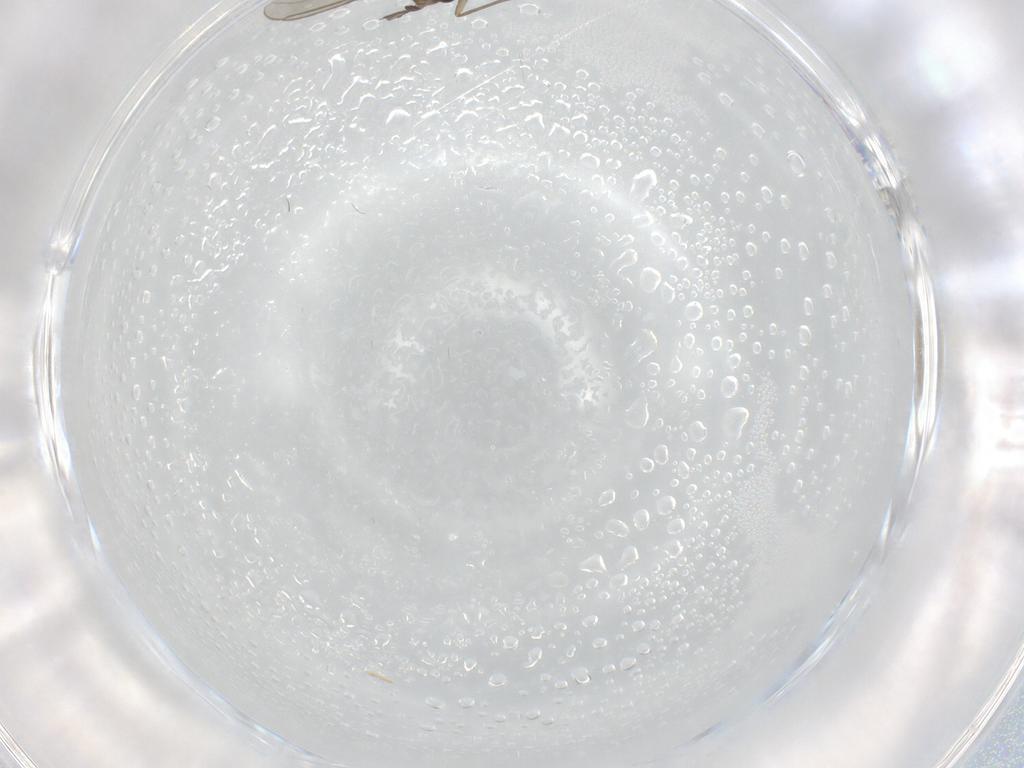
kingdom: Animalia
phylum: Arthropoda
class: Insecta
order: Diptera
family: Sciaridae
